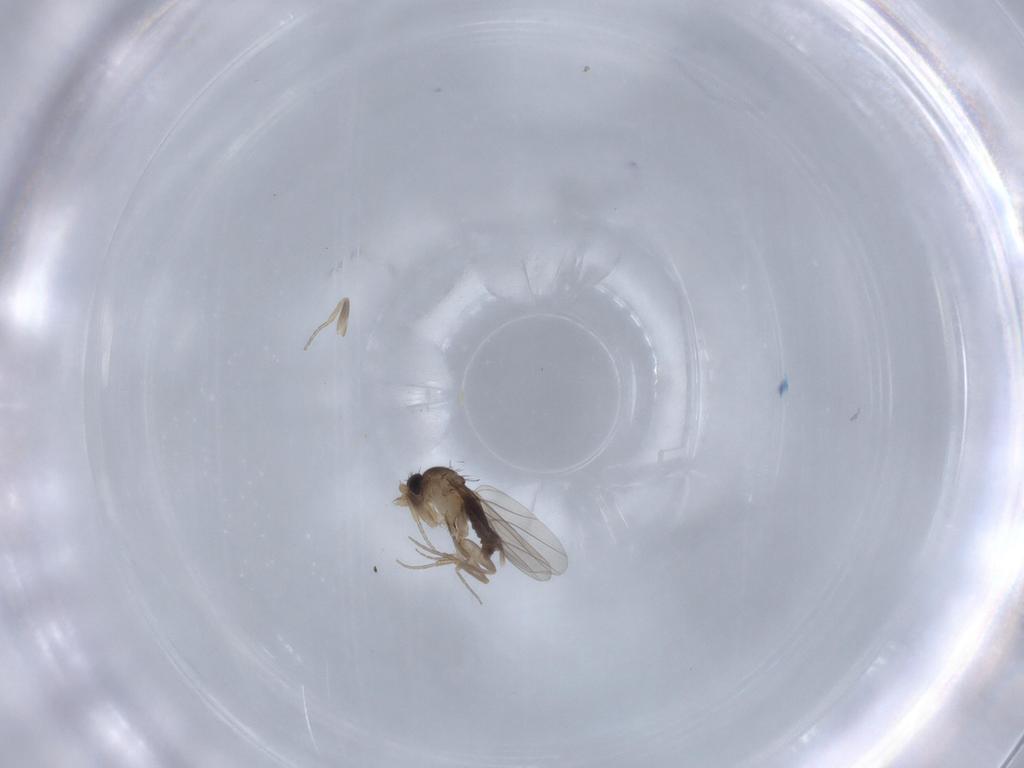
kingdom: Animalia
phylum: Arthropoda
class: Insecta
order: Diptera
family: Phoridae
